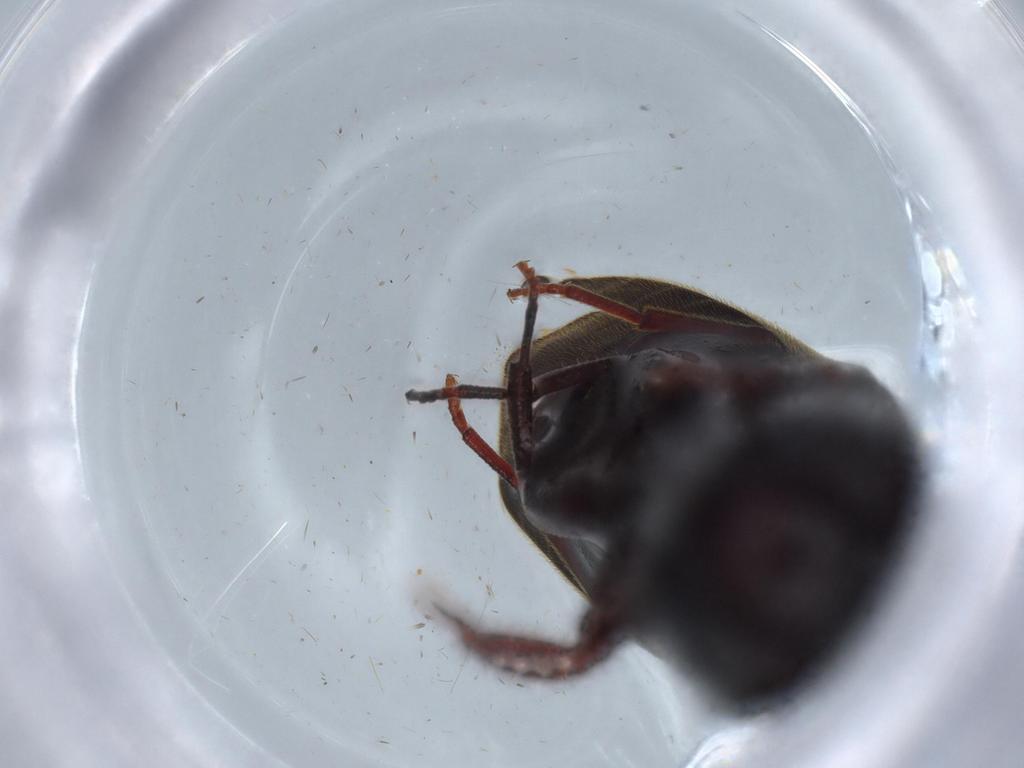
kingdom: Animalia
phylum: Arthropoda
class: Insecta
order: Coleoptera
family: Eucnemidae
